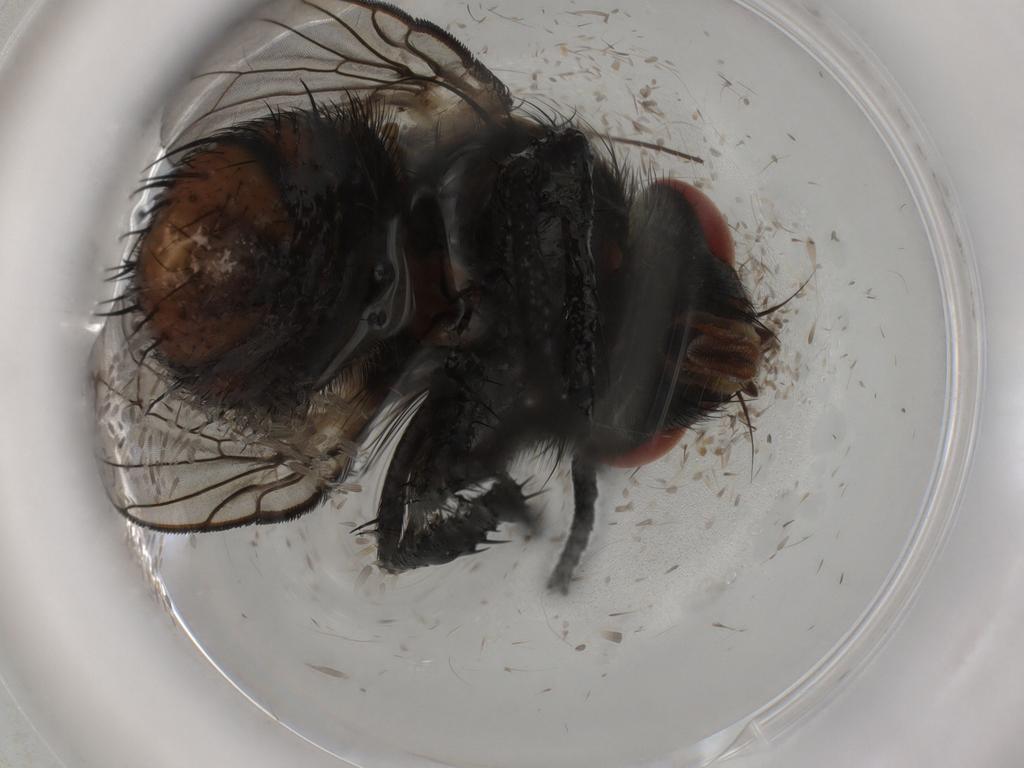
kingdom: Animalia
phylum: Arthropoda
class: Insecta
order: Diptera
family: Tachinidae
